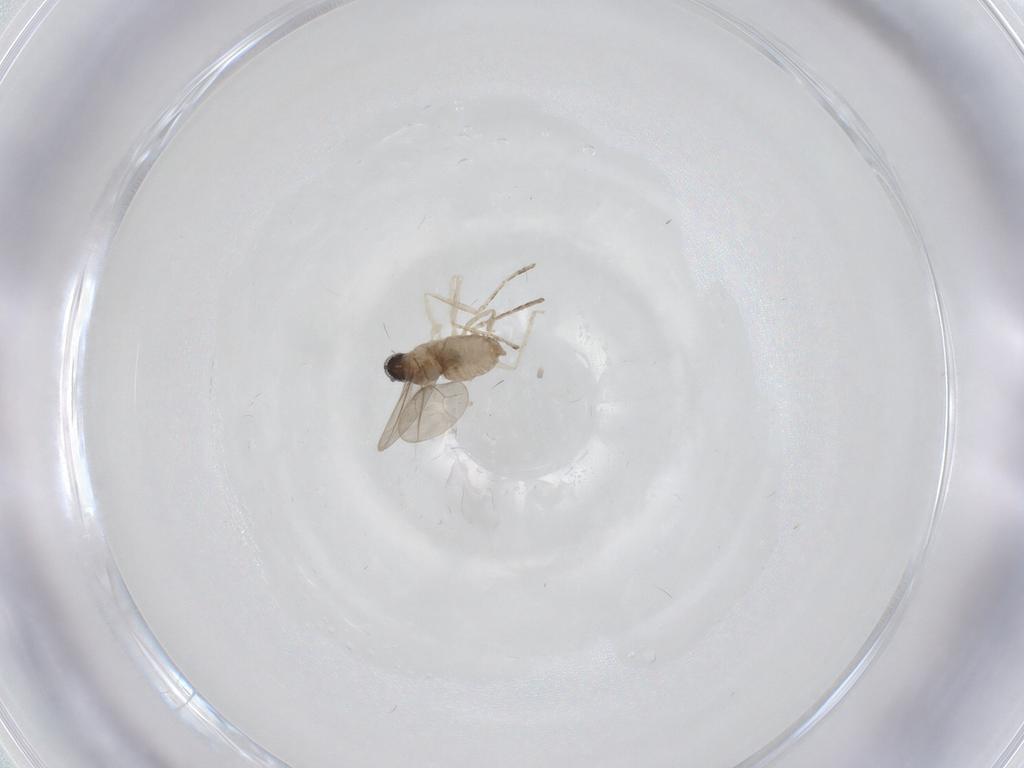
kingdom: Animalia
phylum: Arthropoda
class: Insecta
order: Diptera
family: Cecidomyiidae
